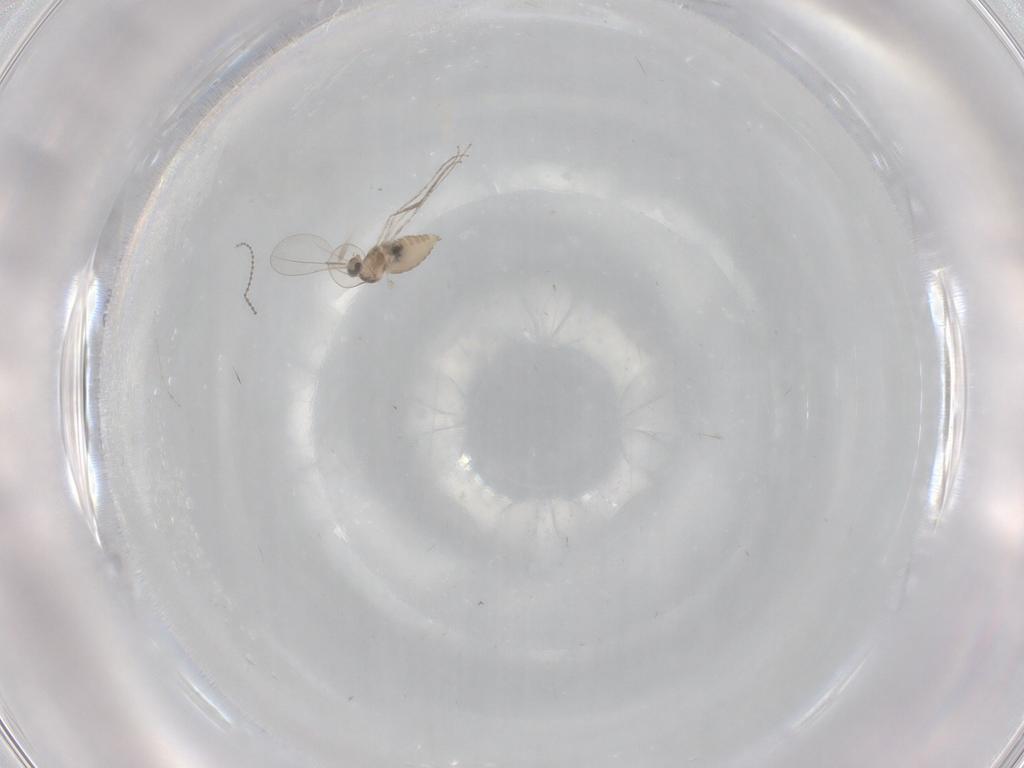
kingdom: Animalia
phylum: Arthropoda
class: Insecta
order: Diptera
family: Cecidomyiidae
